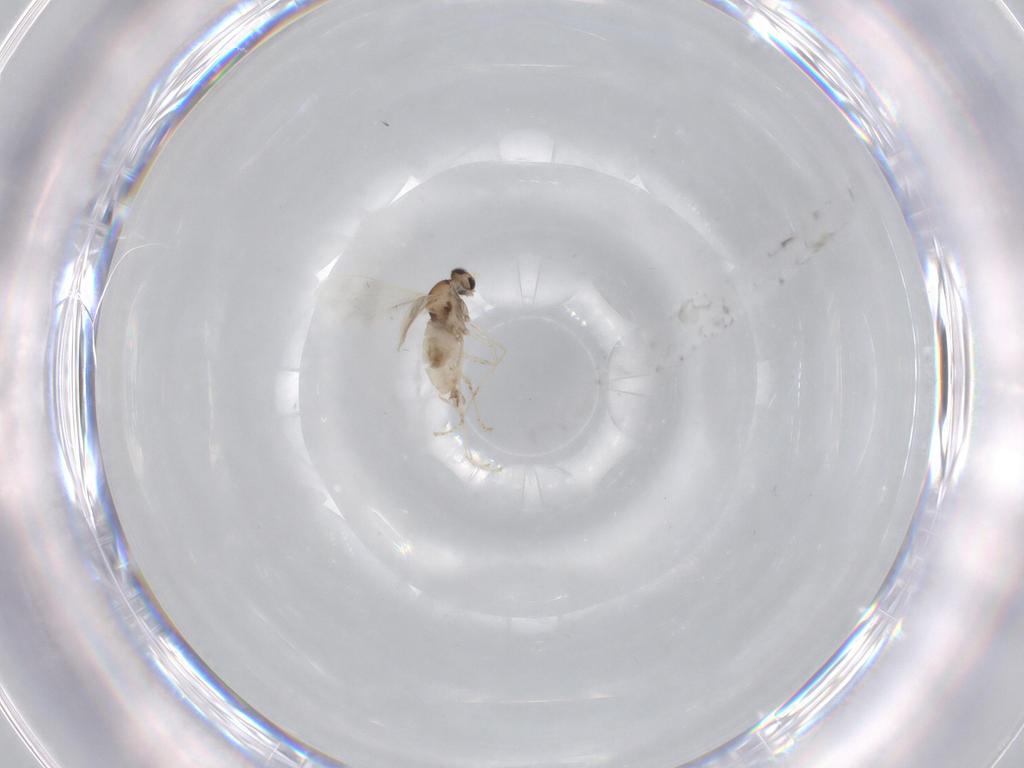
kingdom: Animalia
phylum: Arthropoda
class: Insecta
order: Diptera
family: Cecidomyiidae
